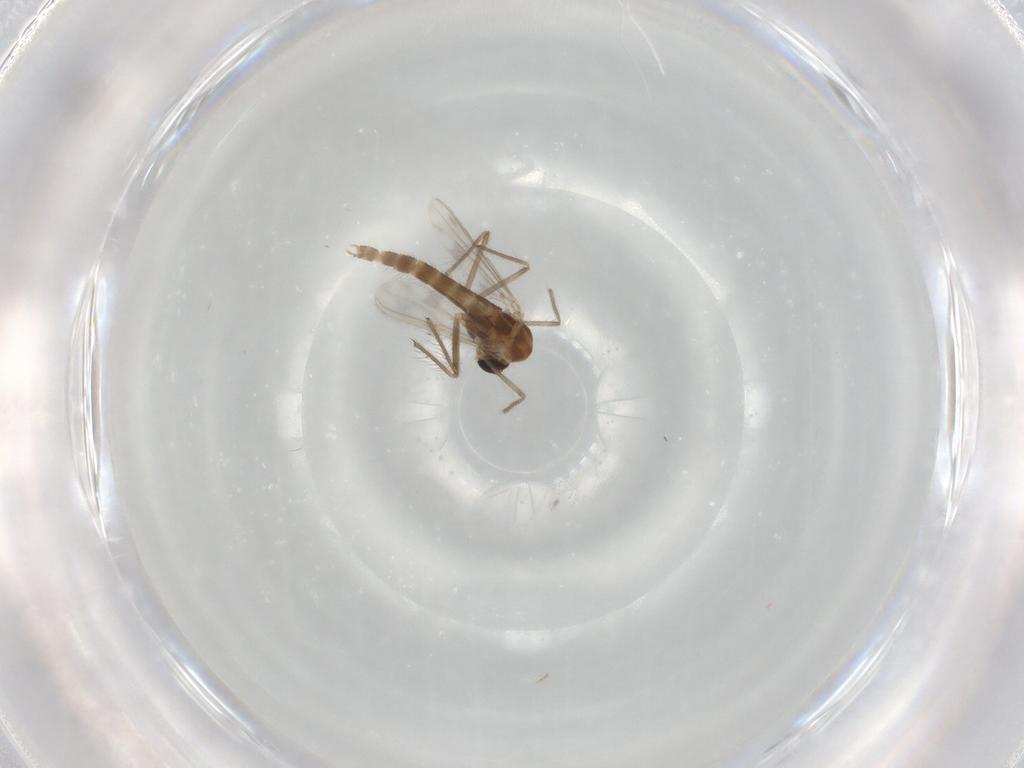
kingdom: Animalia
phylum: Arthropoda
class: Insecta
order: Diptera
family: Chironomidae
